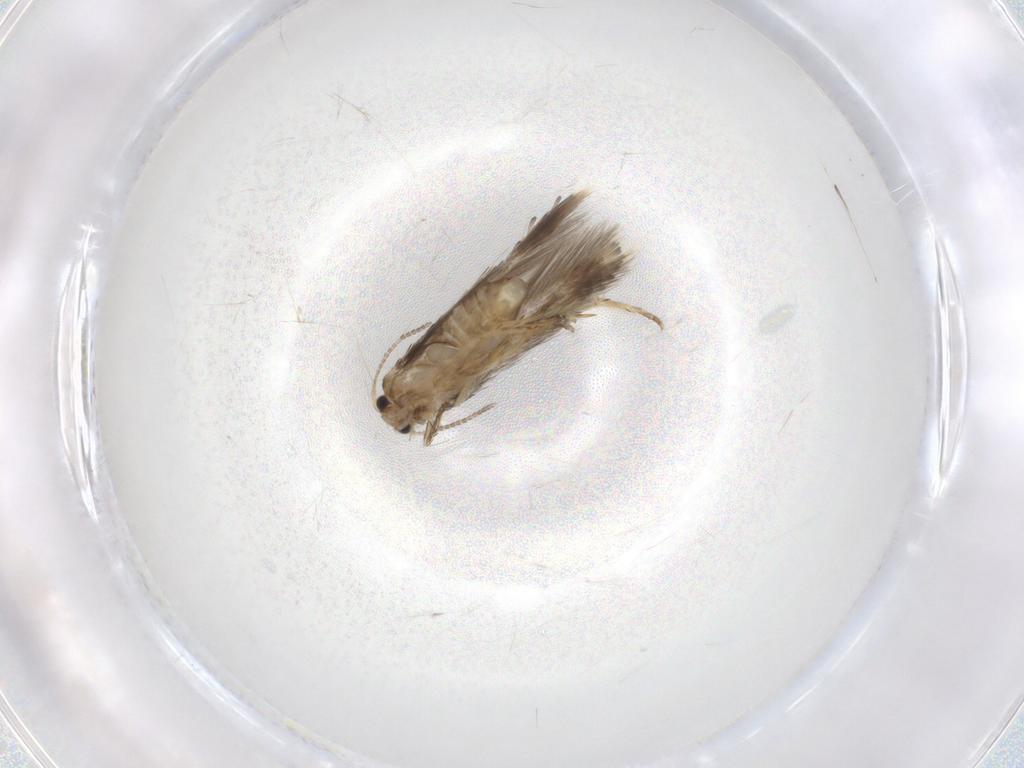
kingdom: Animalia
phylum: Arthropoda
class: Insecta
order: Lepidoptera
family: Nepticulidae
